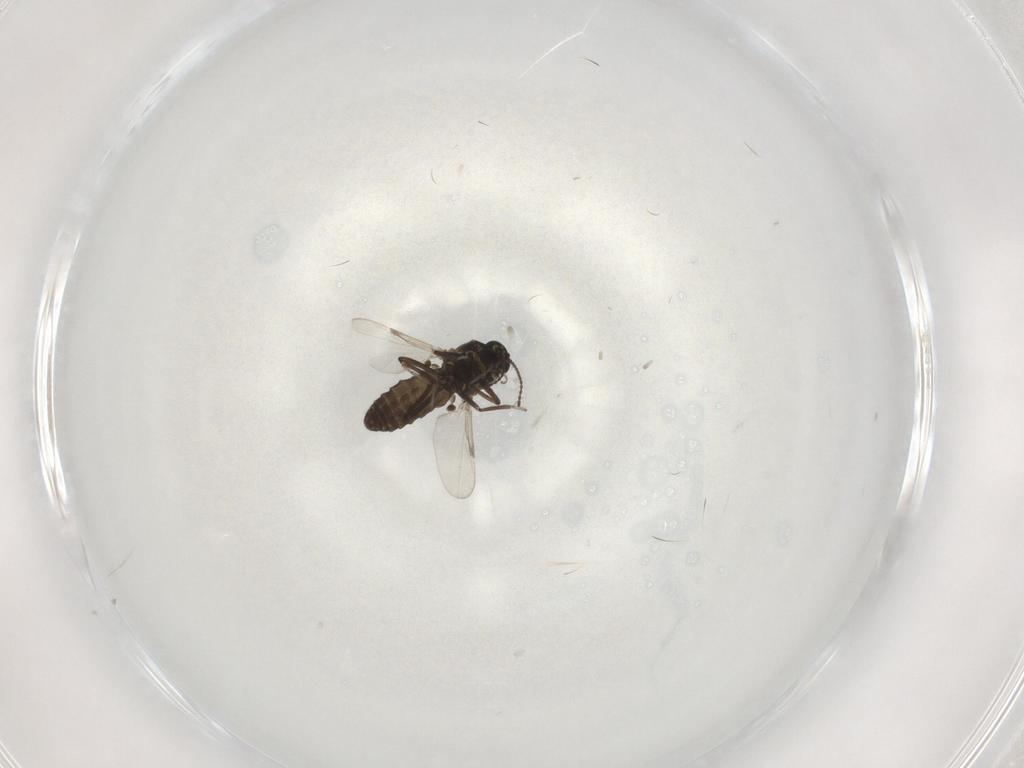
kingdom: Animalia
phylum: Arthropoda
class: Insecta
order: Diptera
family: Ceratopogonidae
